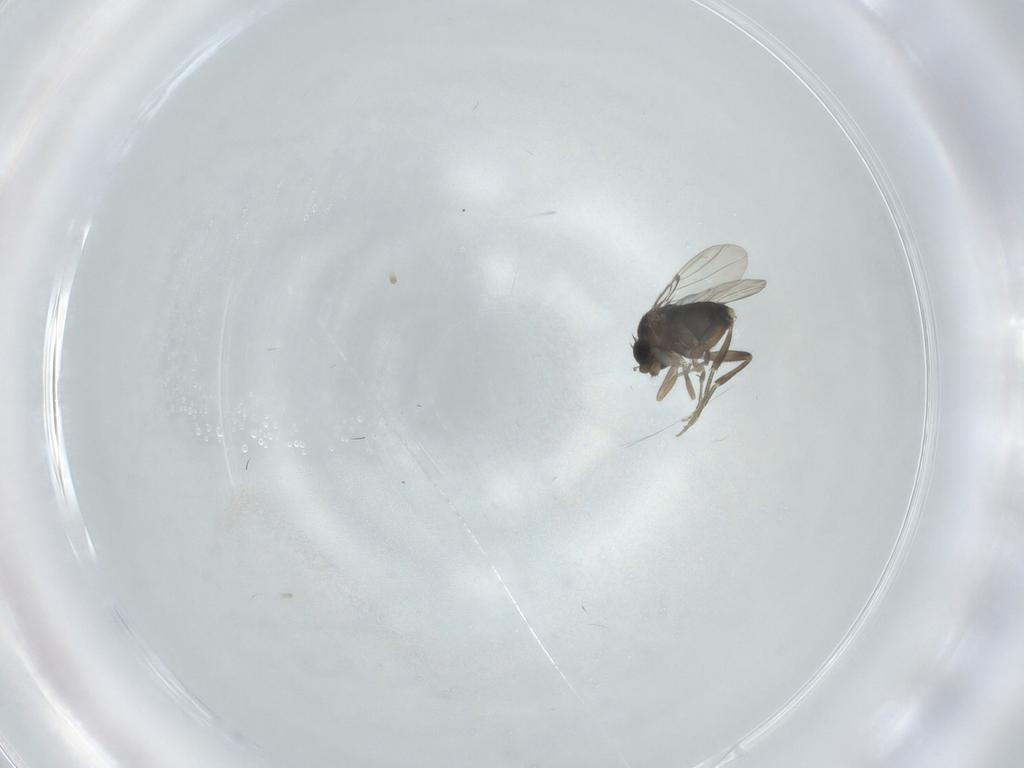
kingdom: Animalia
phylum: Arthropoda
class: Insecta
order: Diptera
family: Phoridae
